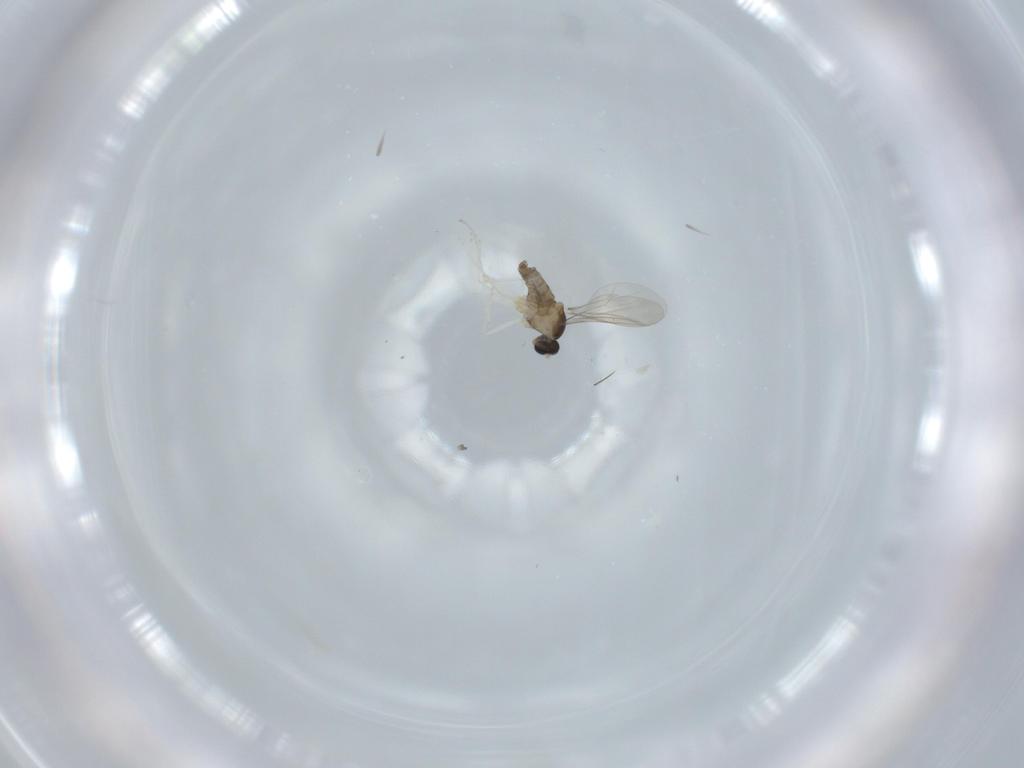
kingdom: Animalia
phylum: Arthropoda
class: Insecta
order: Diptera
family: Cecidomyiidae
